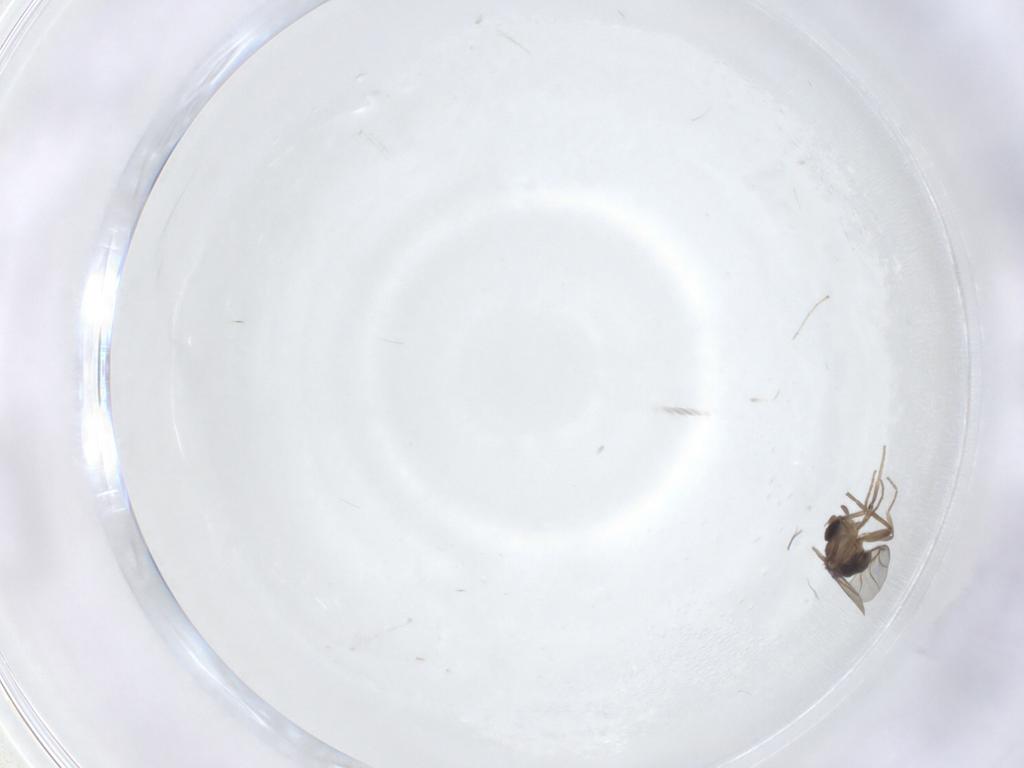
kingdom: Animalia
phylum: Arthropoda
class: Insecta
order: Diptera
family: Phoridae
